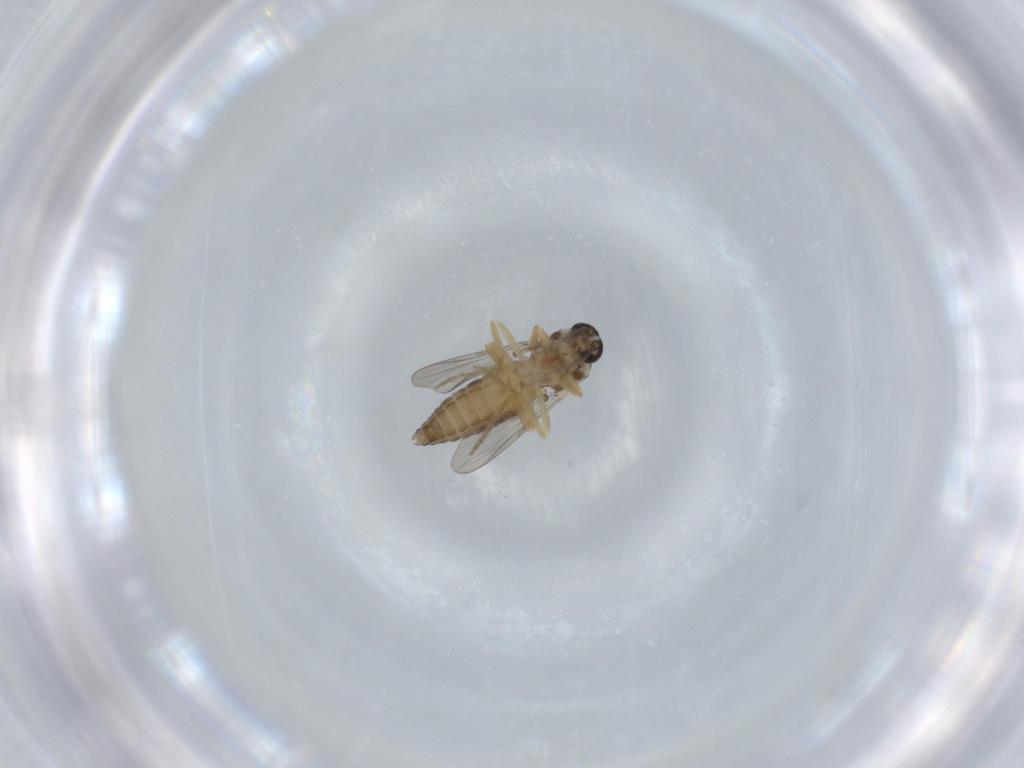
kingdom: Animalia
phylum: Arthropoda
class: Insecta
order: Diptera
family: Ceratopogonidae
